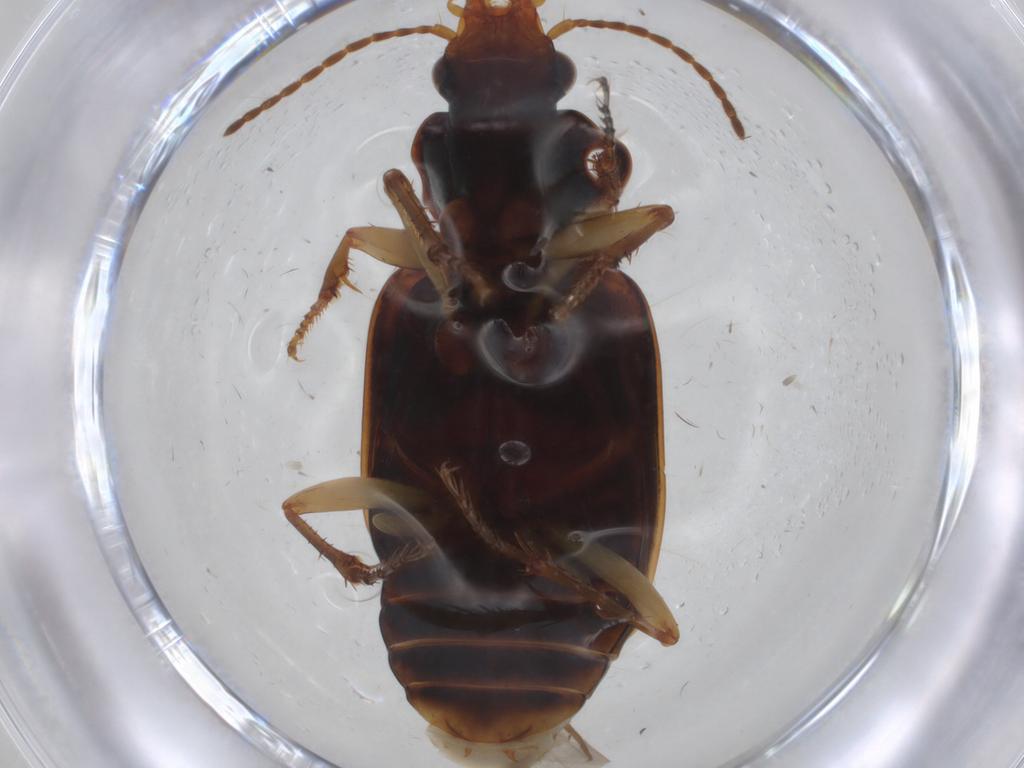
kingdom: Animalia
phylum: Arthropoda
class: Insecta
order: Coleoptera
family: Carabidae
